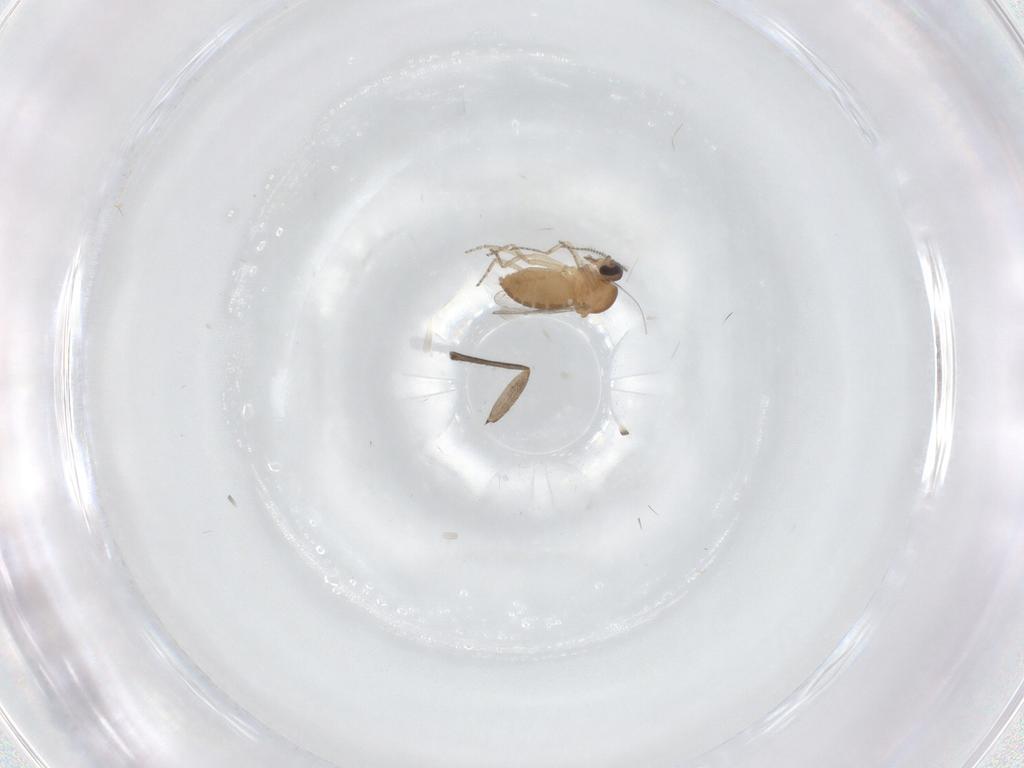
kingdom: Animalia
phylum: Arthropoda
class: Insecta
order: Diptera
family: Ceratopogonidae
